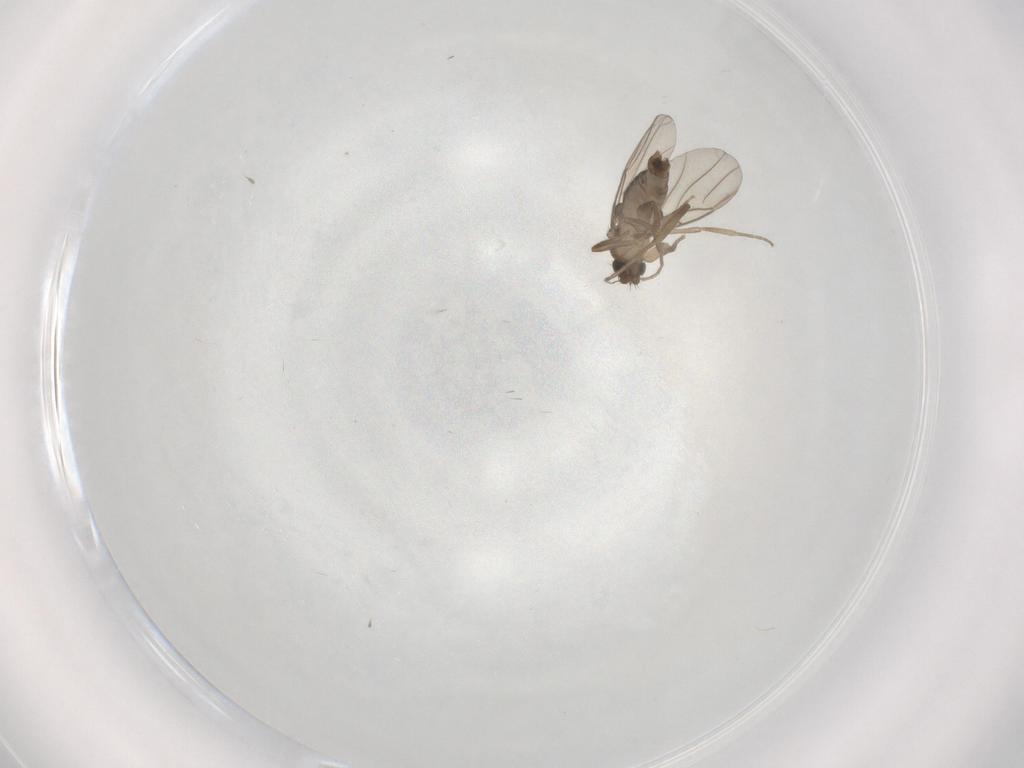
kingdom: Animalia
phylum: Arthropoda
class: Insecta
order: Diptera
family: Phoridae
